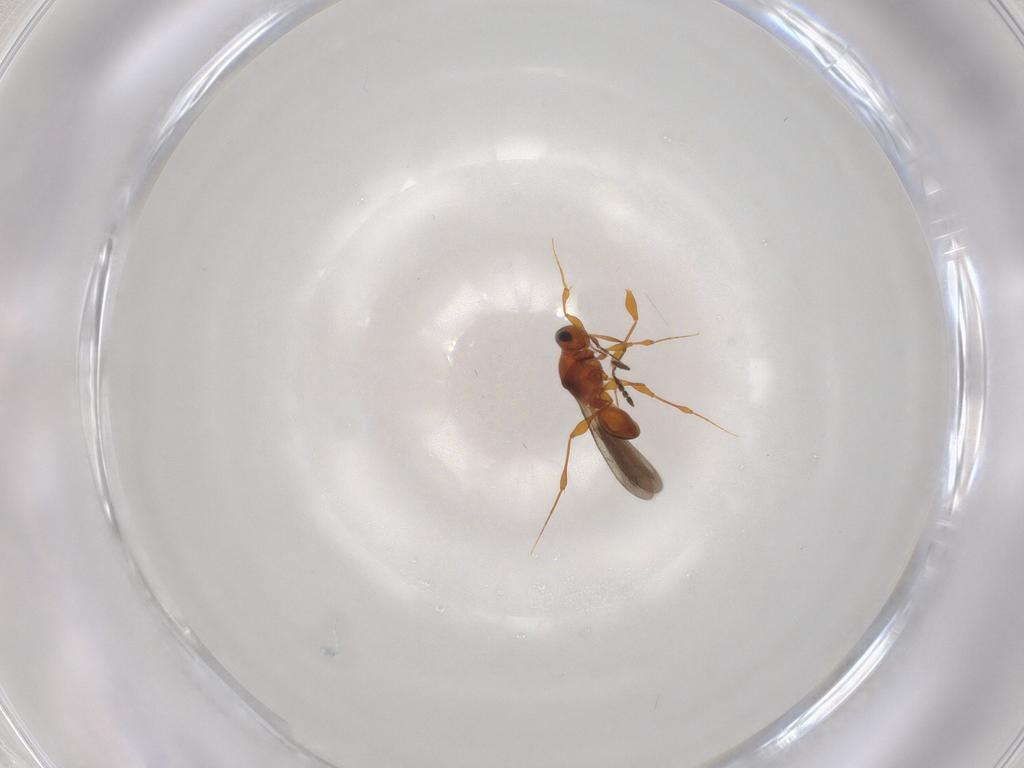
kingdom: Animalia
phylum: Arthropoda
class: Insecta
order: Hymenoptera
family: Platygastridae
